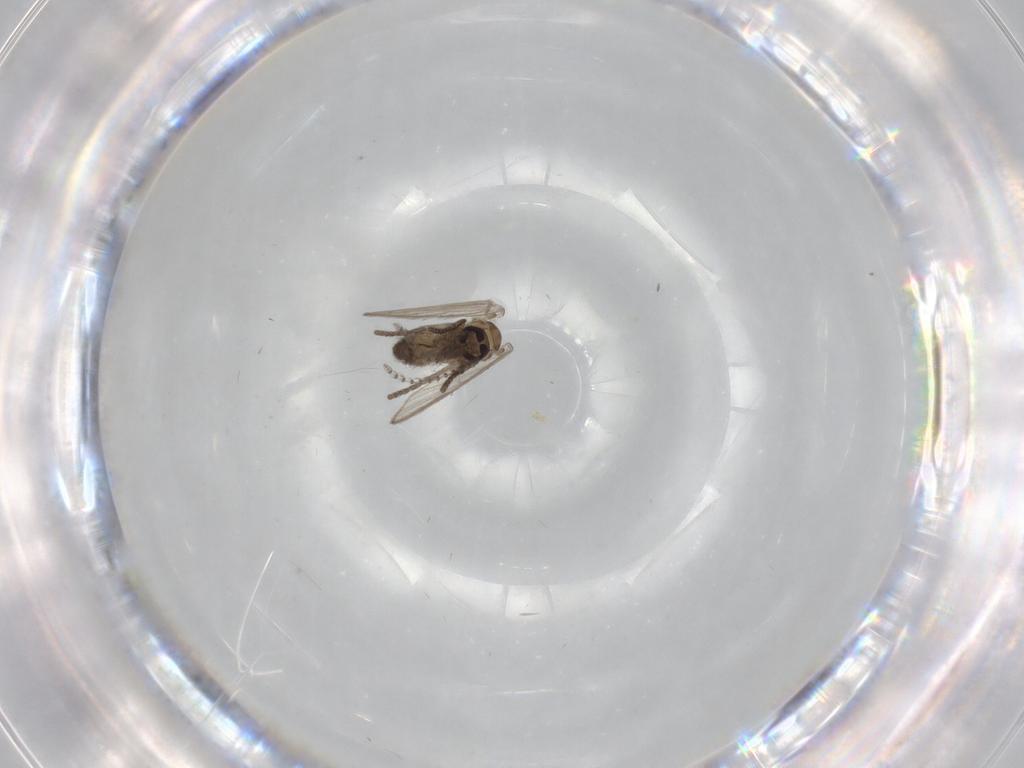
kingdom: Animalia
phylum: Arthropoda
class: Insecta
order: Diptera
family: Psychodidae
